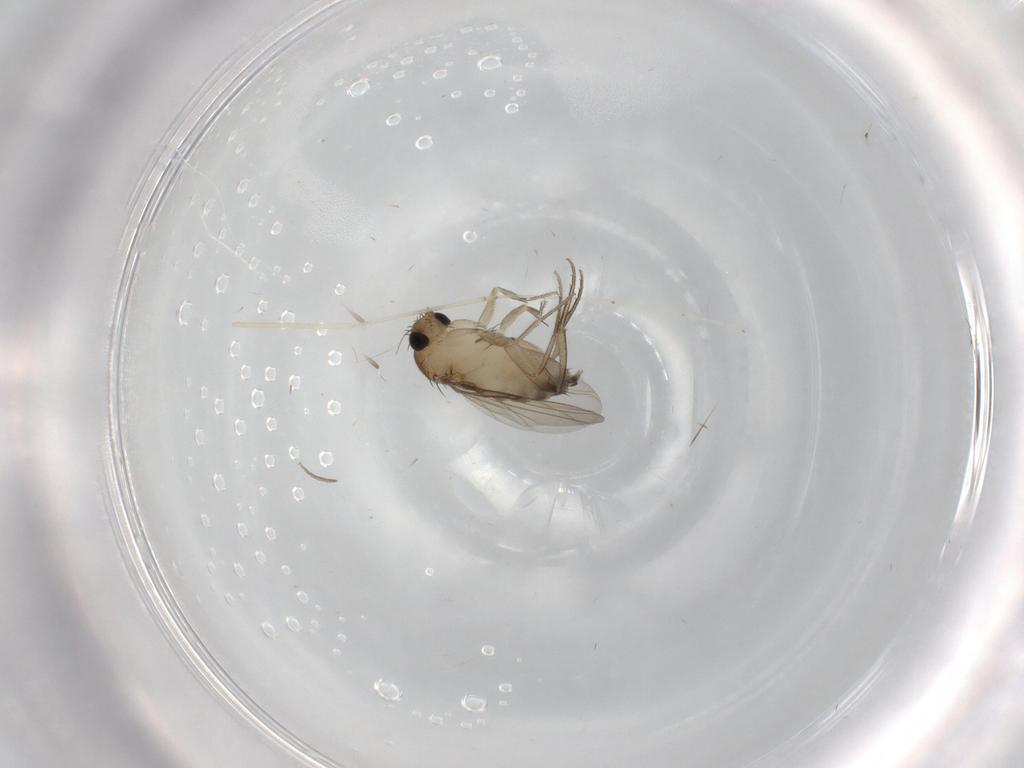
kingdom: Animalia
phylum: Arthropoda
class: Insecta
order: Diptera
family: Phoridae
